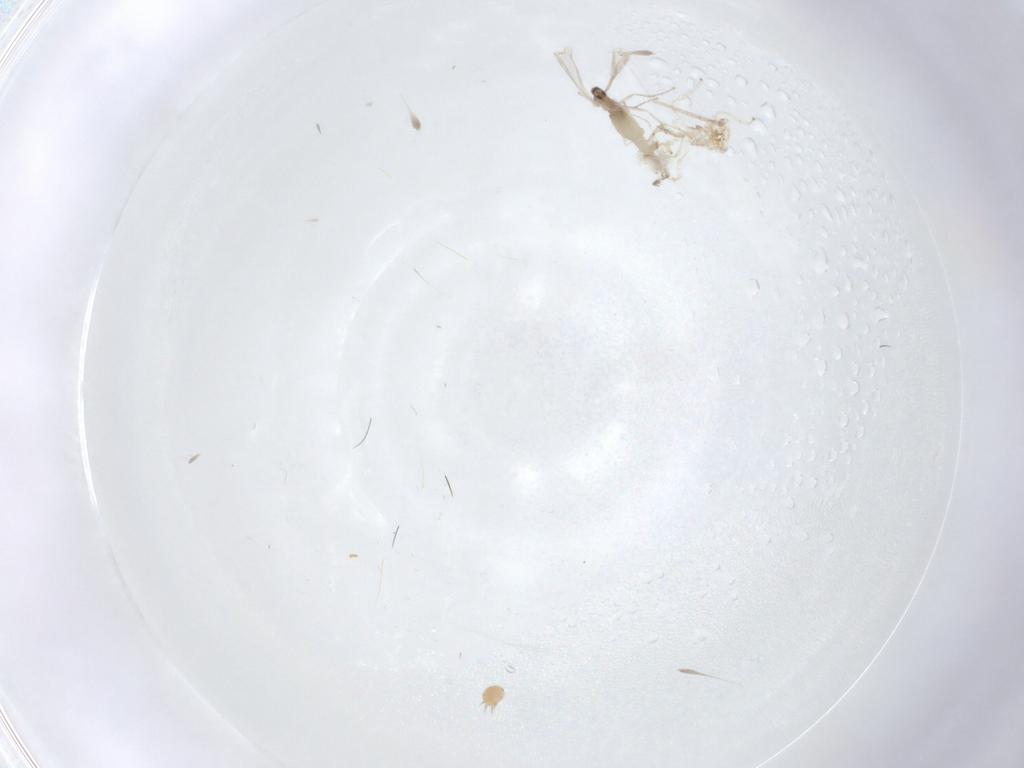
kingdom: Animalia
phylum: Arthropoda
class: Insecta
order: Diptera
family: Cecidomyiidae
